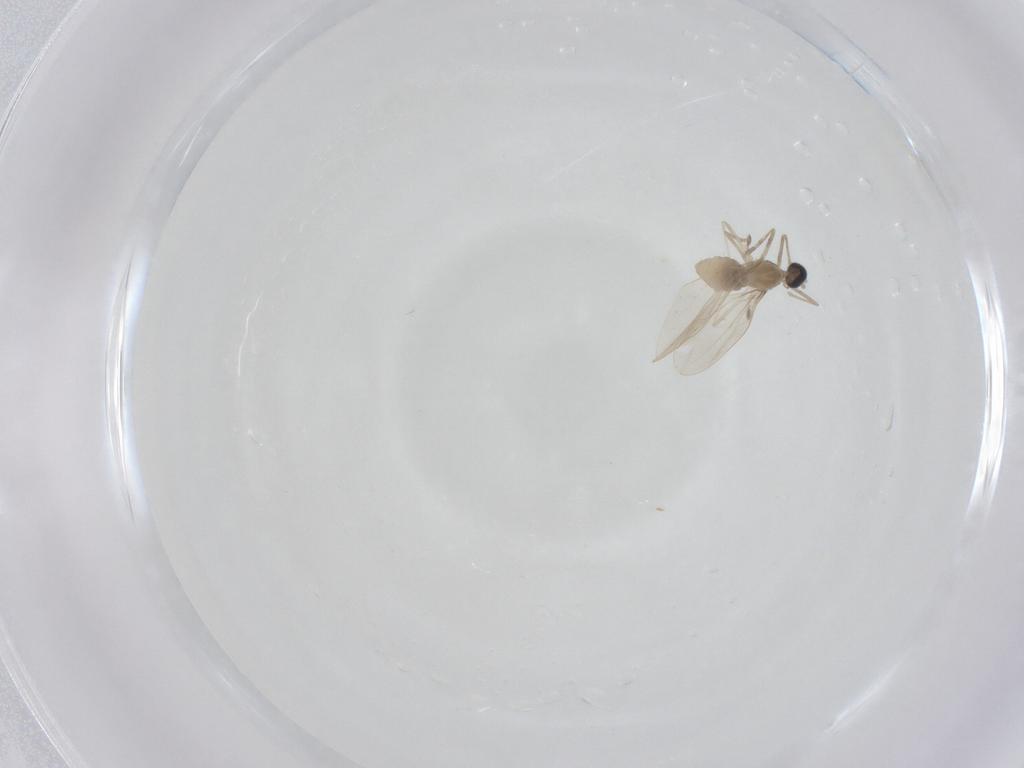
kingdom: Animalia
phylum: Arthropoda
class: Insecta
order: Diptera
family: Cecidomyiidae
